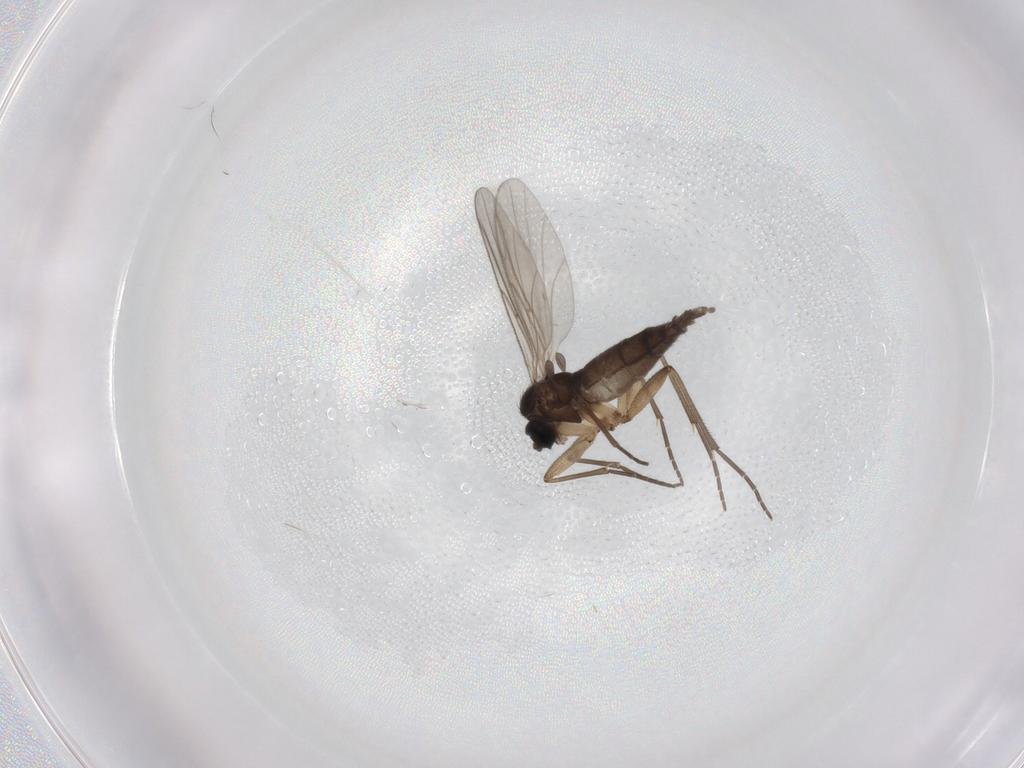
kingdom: Animalia
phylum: Arthropoda
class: Insecta
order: Diptera
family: Sciaridae
